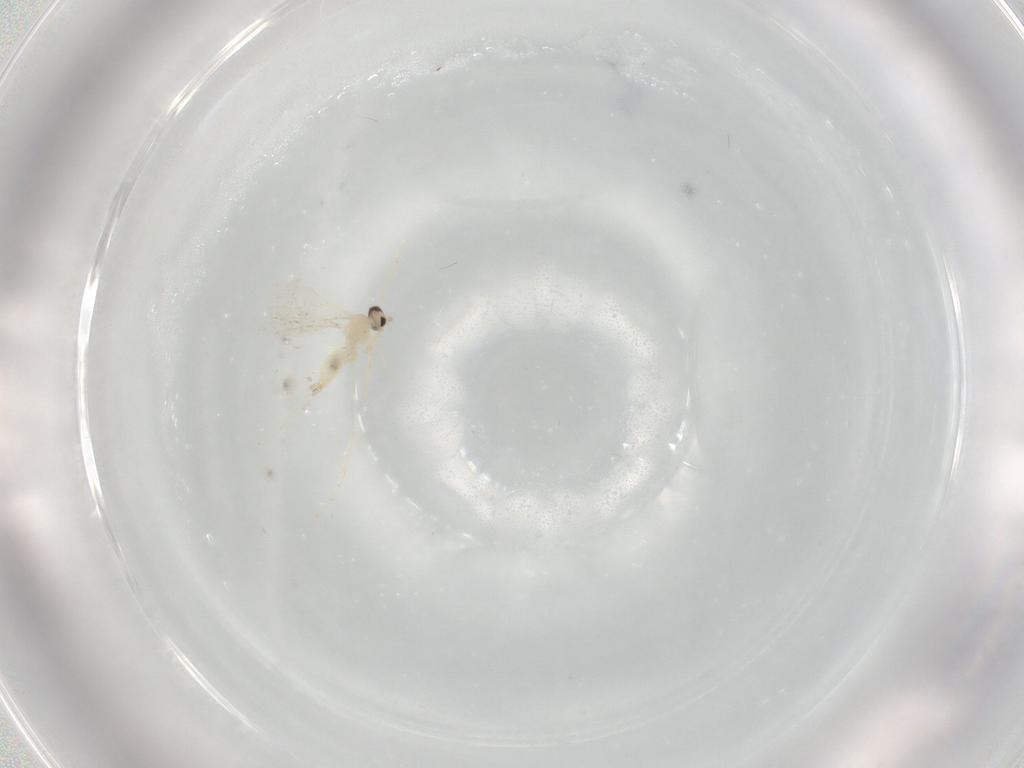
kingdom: Animalia
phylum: Arthropoda
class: Insecta
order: Diptera
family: Cecidomyiidae
